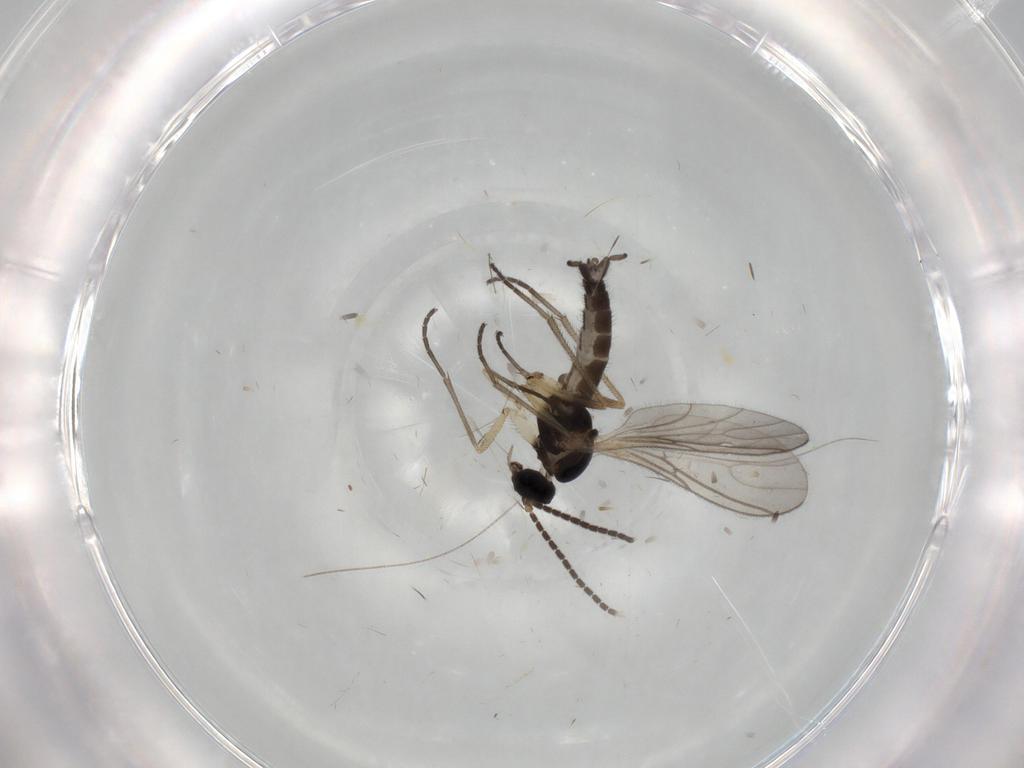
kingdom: Animalia
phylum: Arthropoda
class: Insecta
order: Diptera
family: Sciaridae
